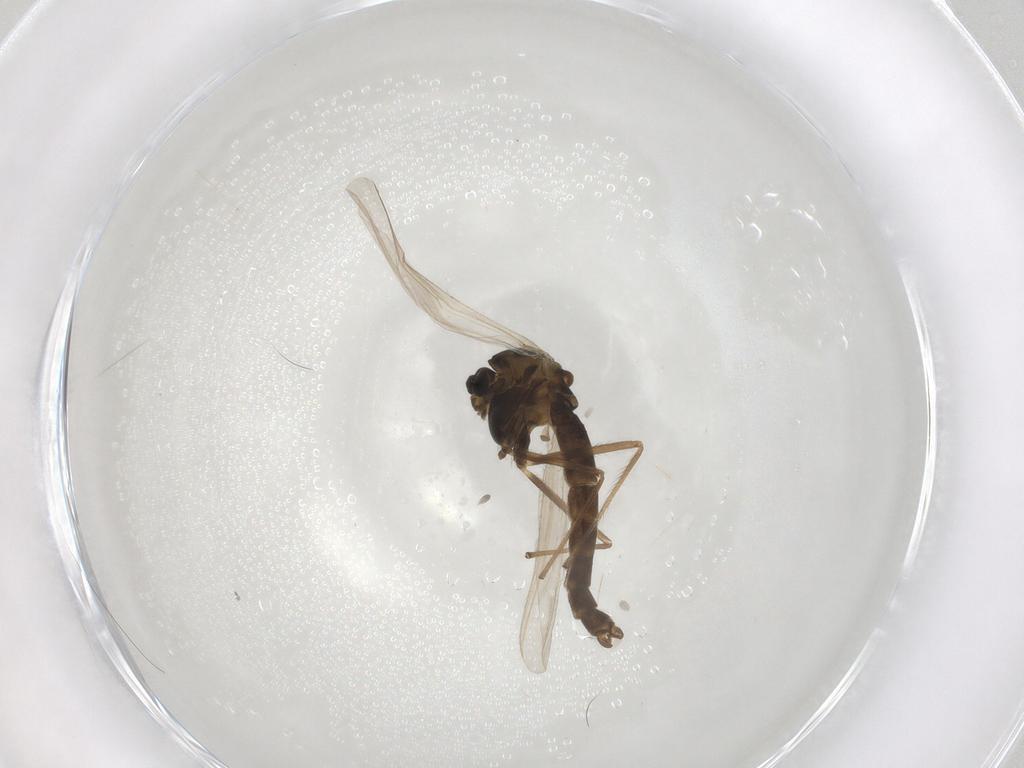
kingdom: Animalia
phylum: Arthropoda
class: Insecta
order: Diptera
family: Chironomidae
